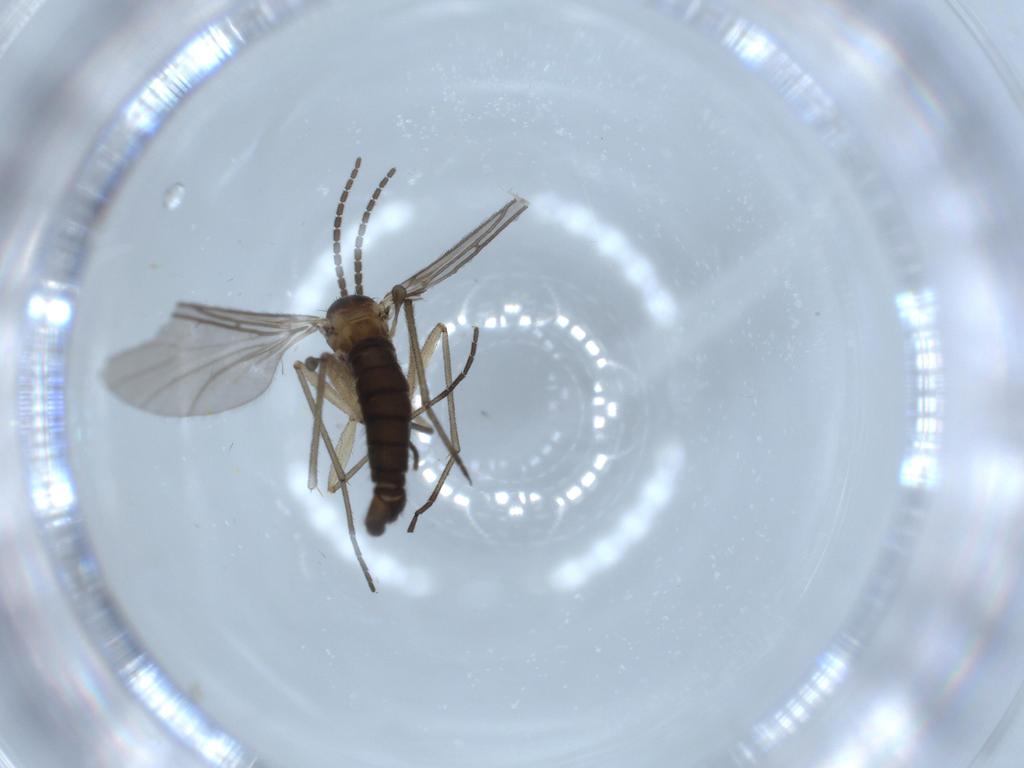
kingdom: Animalia
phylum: Arthropoda
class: Insecta
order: Diptera
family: Sciaridae
